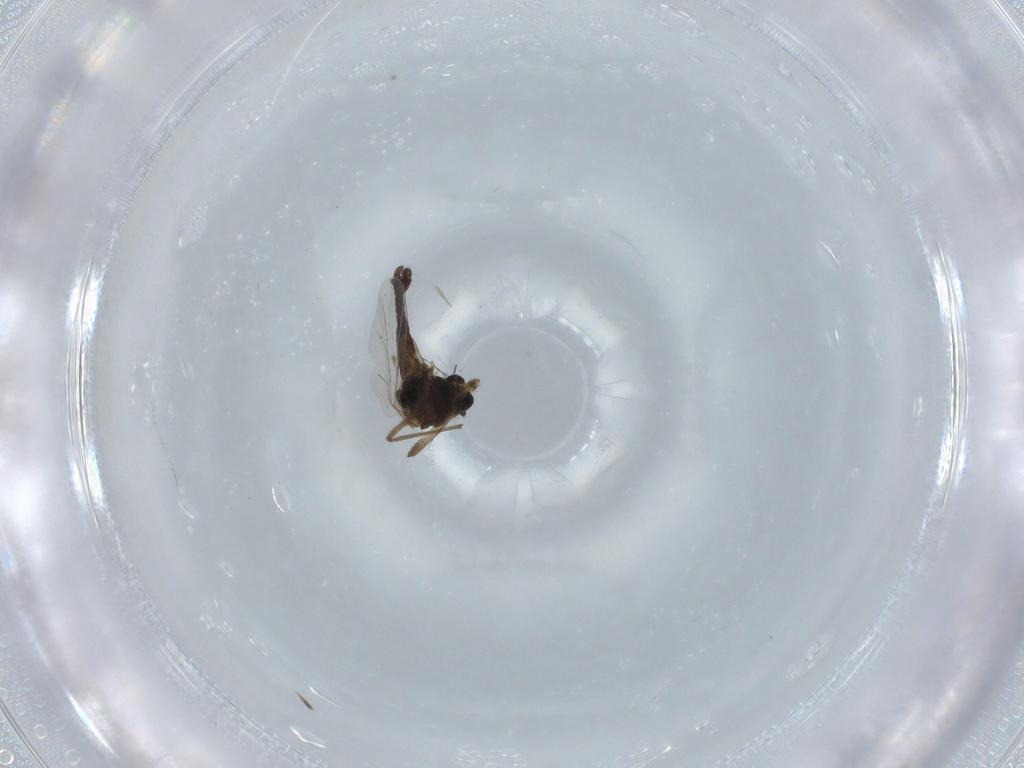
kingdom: Animalia
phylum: Arthropoda
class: Insecta
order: Diptera
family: Chironomidae
